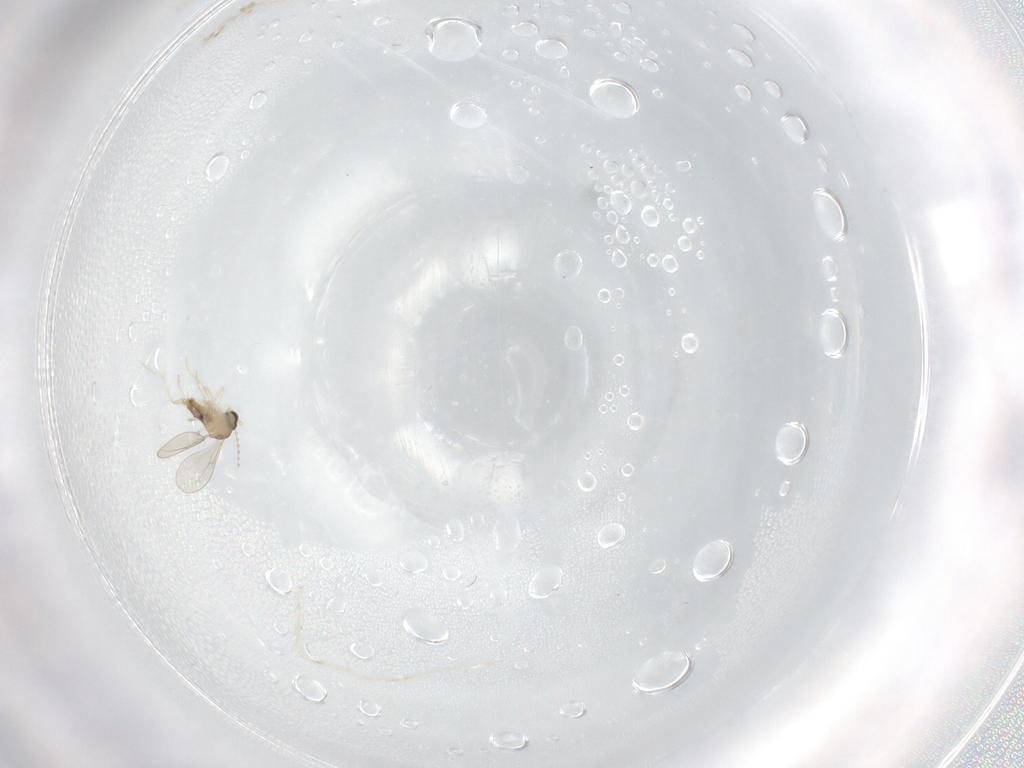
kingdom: Animalia
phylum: Arthropoda
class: Insecta
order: Diptera
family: Cecidomyiidae
